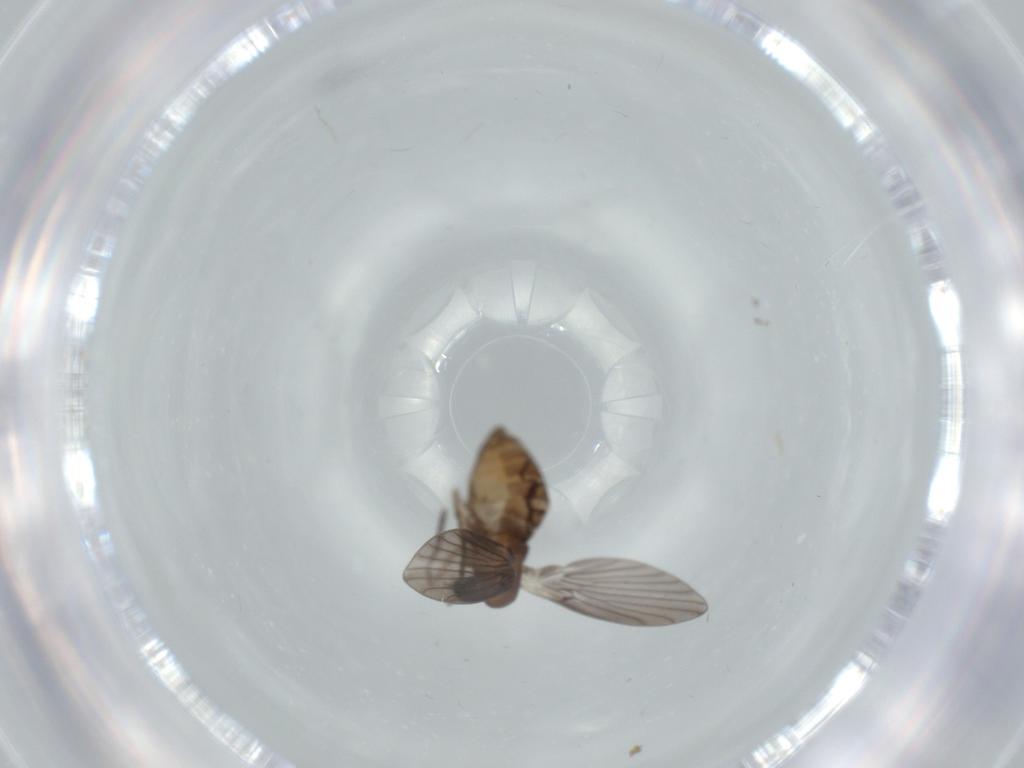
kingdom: Animalia
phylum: Arthropoda
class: Insecta
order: Diptera
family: Psychodidae
